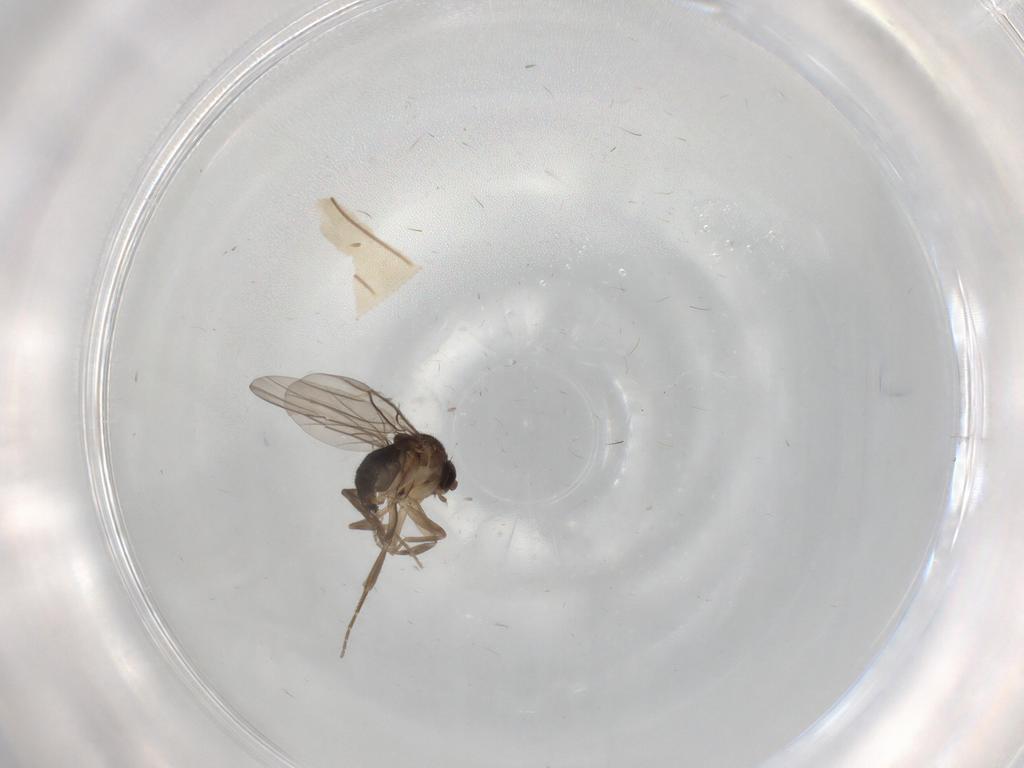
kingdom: Animalia
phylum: Arthropoda
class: Insecta
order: Diptera
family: Phoridae
